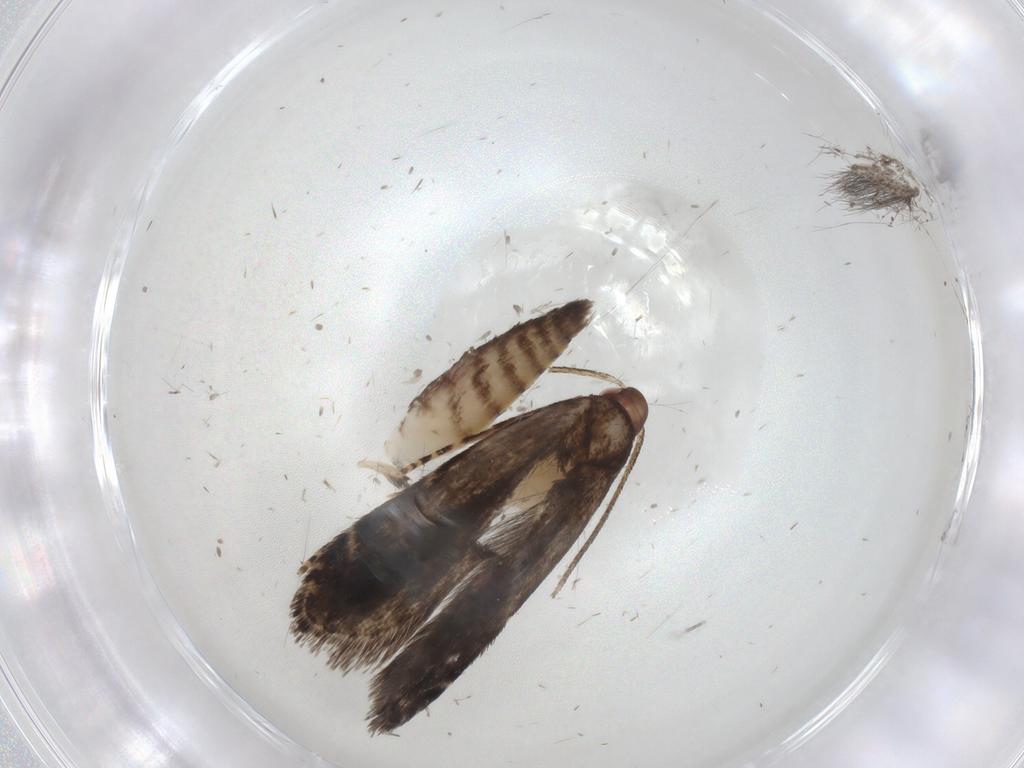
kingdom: Animalia
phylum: Arthropoda
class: Insecta
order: Lepidoptera
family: Gelechiidae
